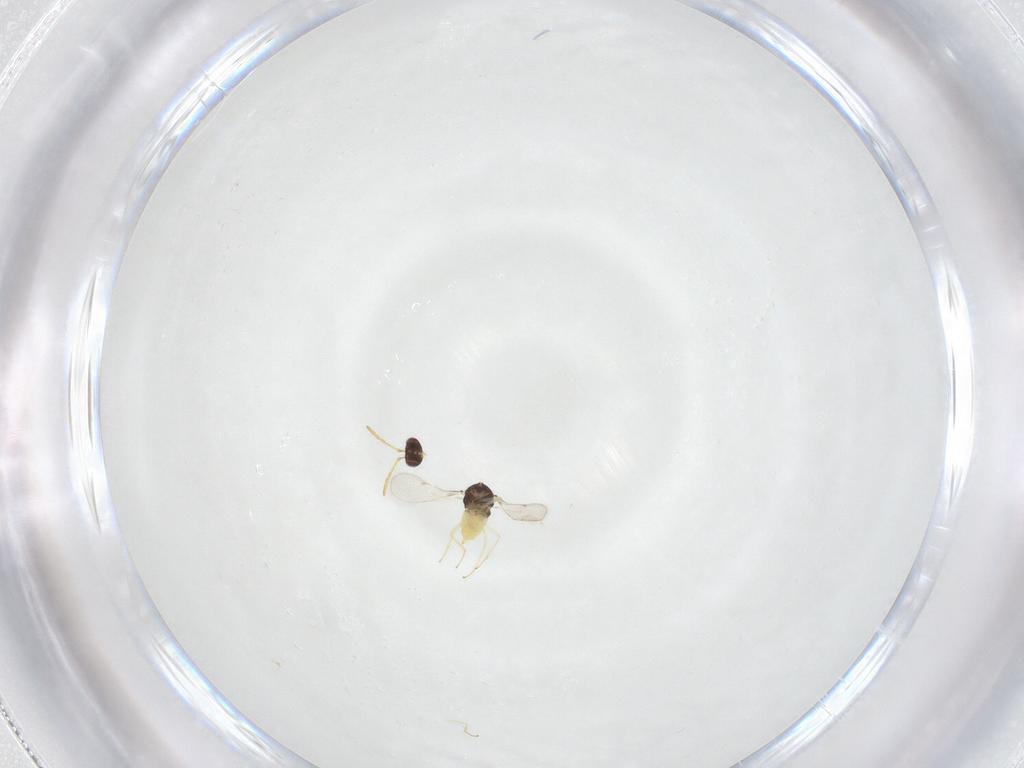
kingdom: Animalia
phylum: Arthropoda
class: Insecta
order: Hymenoptera
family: Aphelinidae
